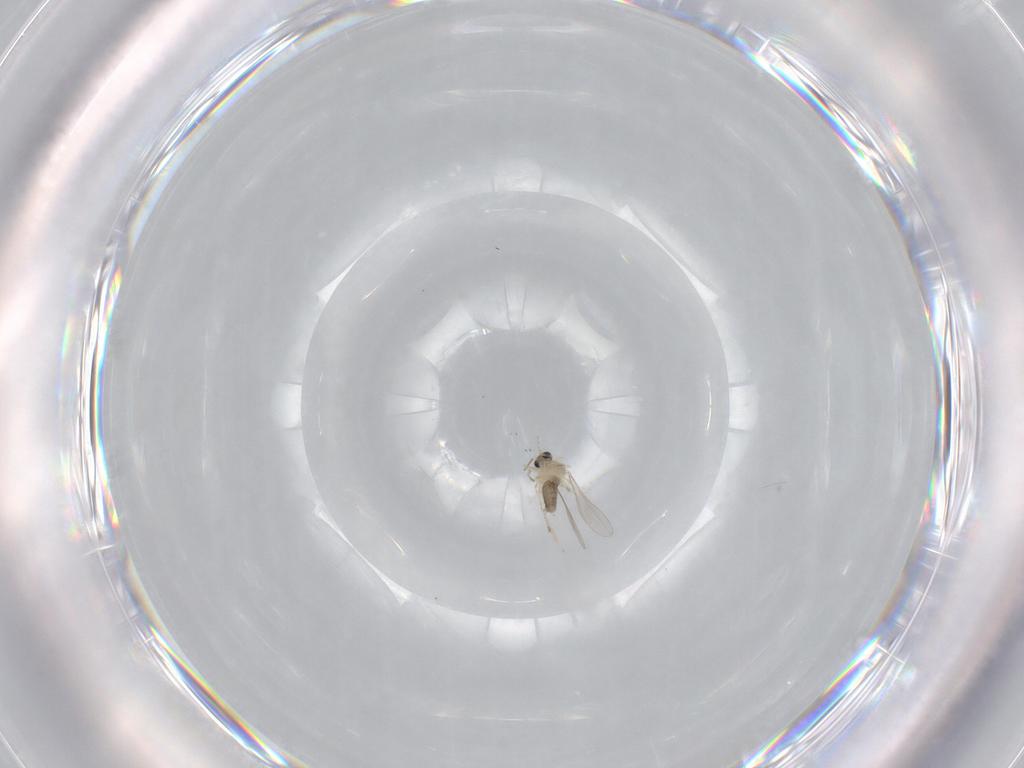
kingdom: Animalia
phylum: Arthropoda
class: Insecta
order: Diptera
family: Cecidomyiidae
